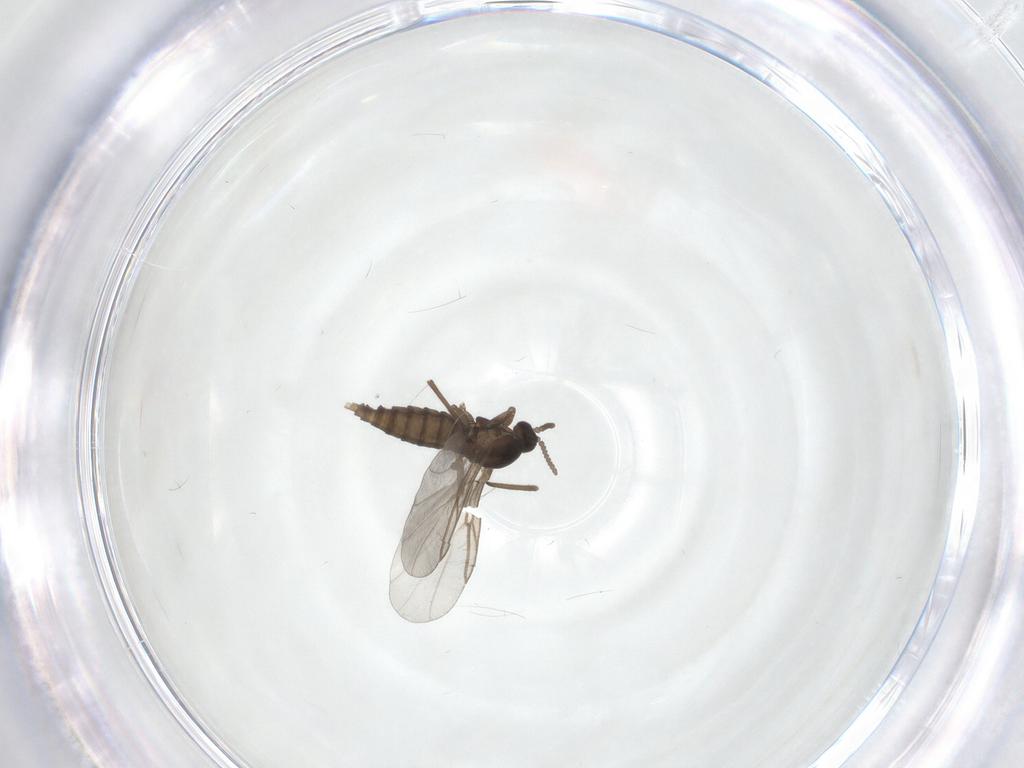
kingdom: Animalia
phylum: Arthropoda
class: Insecta
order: Diptera
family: Cecidomyiidae
